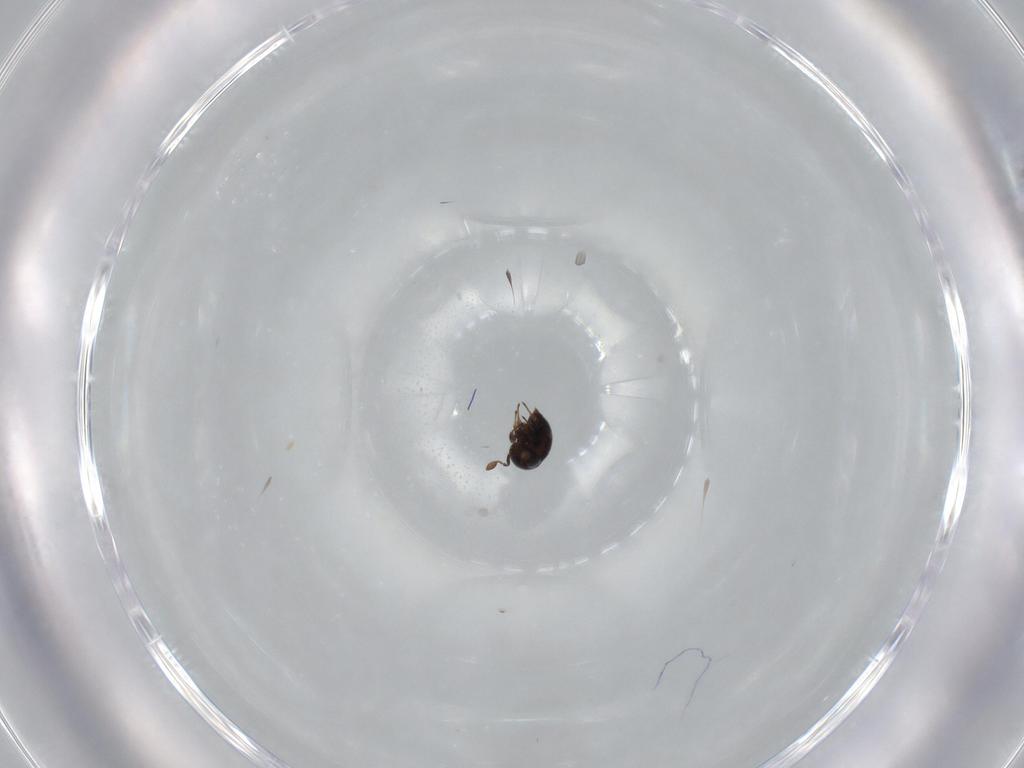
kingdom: Animalia
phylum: Arthropoda
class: Insecta
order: Hymenoptera
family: Scelionidae
